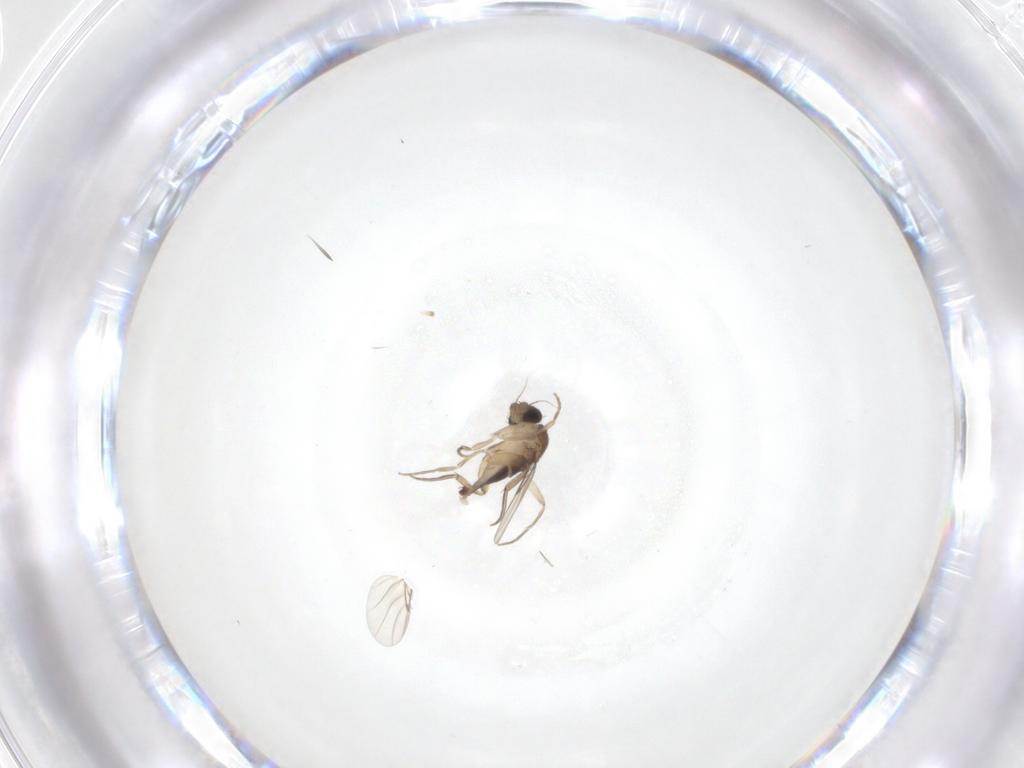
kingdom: Animalia
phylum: Arthropoda
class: Insecta
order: Diptera
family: Phoridae
